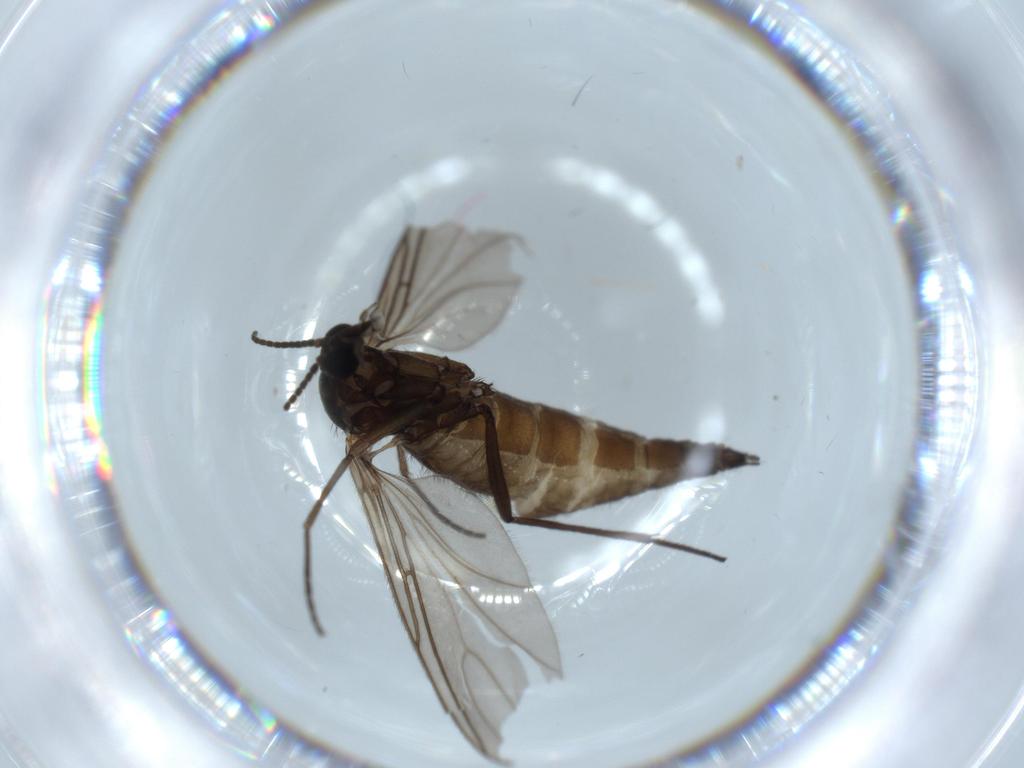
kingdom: Animalia
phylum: Arthropoda
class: Insecta
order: Diptera
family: Sciaridae
